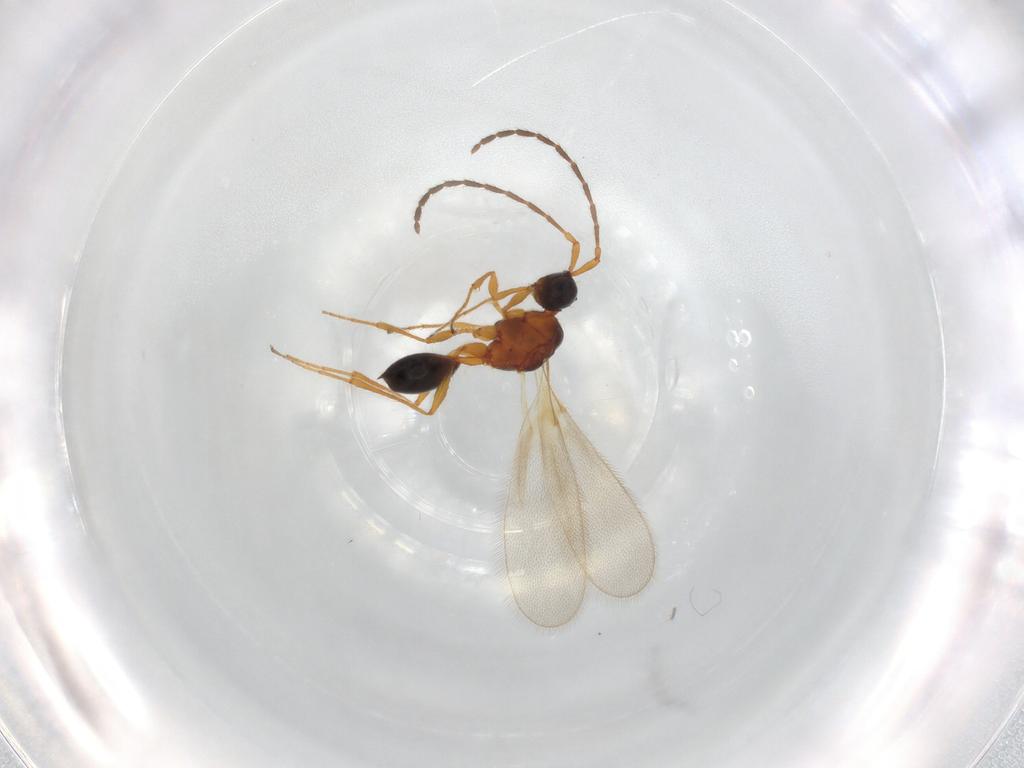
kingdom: Animalia
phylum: Arthropoda
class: Insecta
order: Hymenoptera
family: Diapriidae
